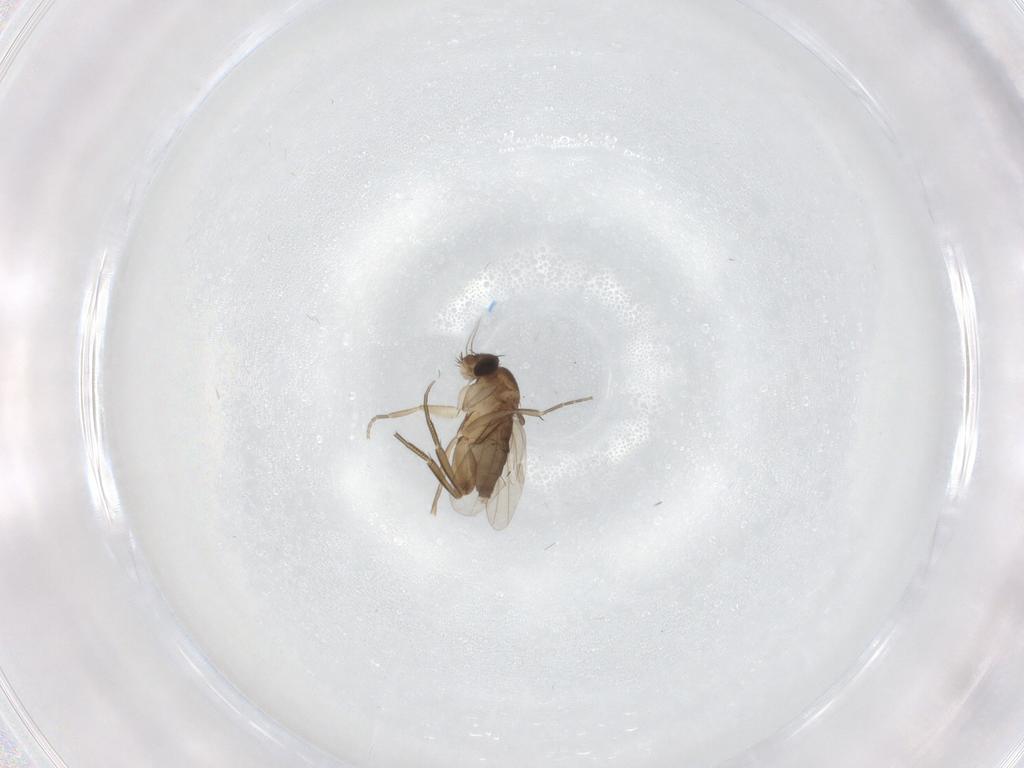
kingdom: Animalia
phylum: Arthropoda
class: Insecta
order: Diptera
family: Phoridae
